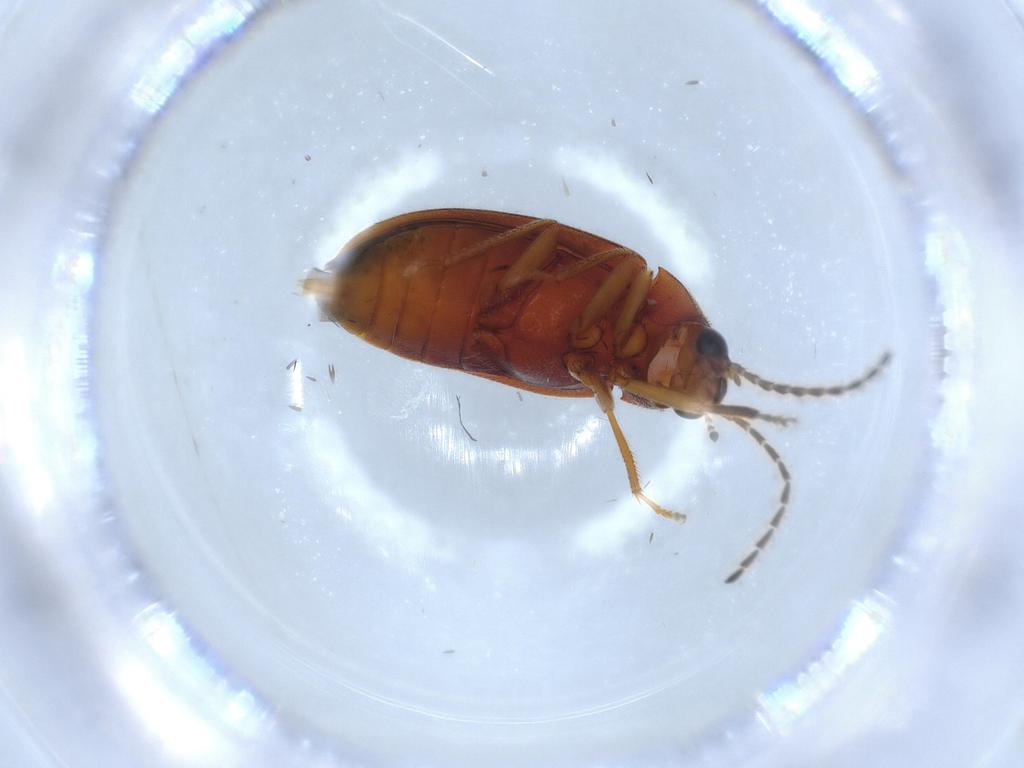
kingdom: Animalia
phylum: Arthropoda
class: Insecta
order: Coleoptera
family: Ptilodactylidae
